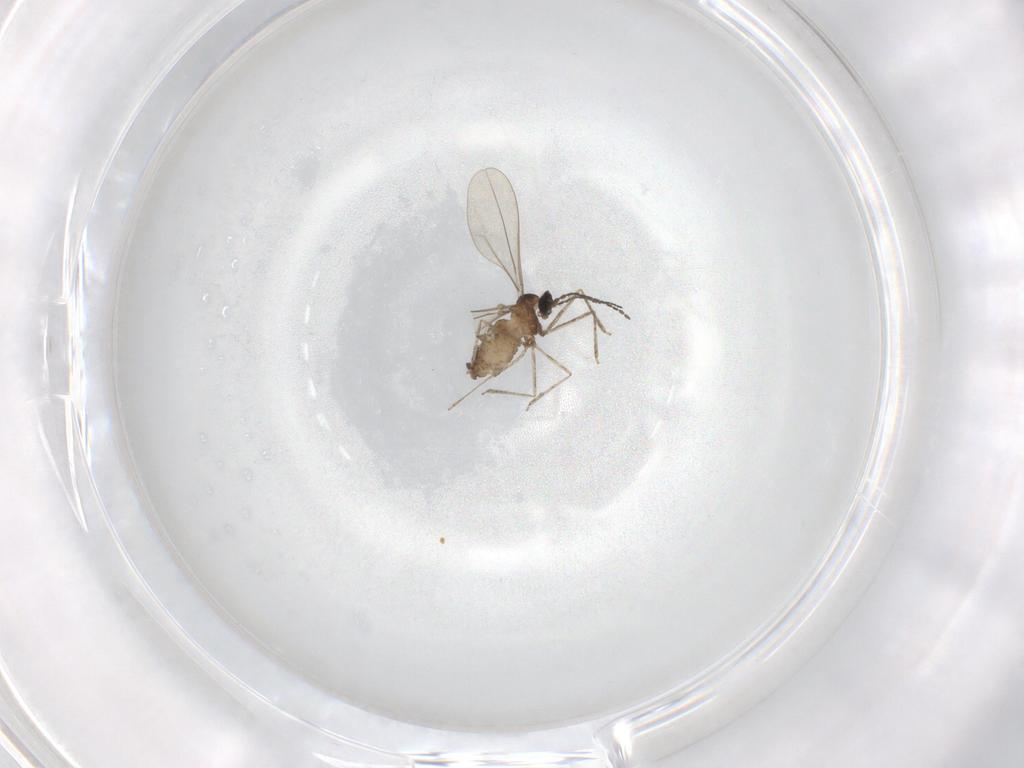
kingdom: Animalia
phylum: Arthropoda
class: Insecta
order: Diptera
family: Cecidomyiidae
